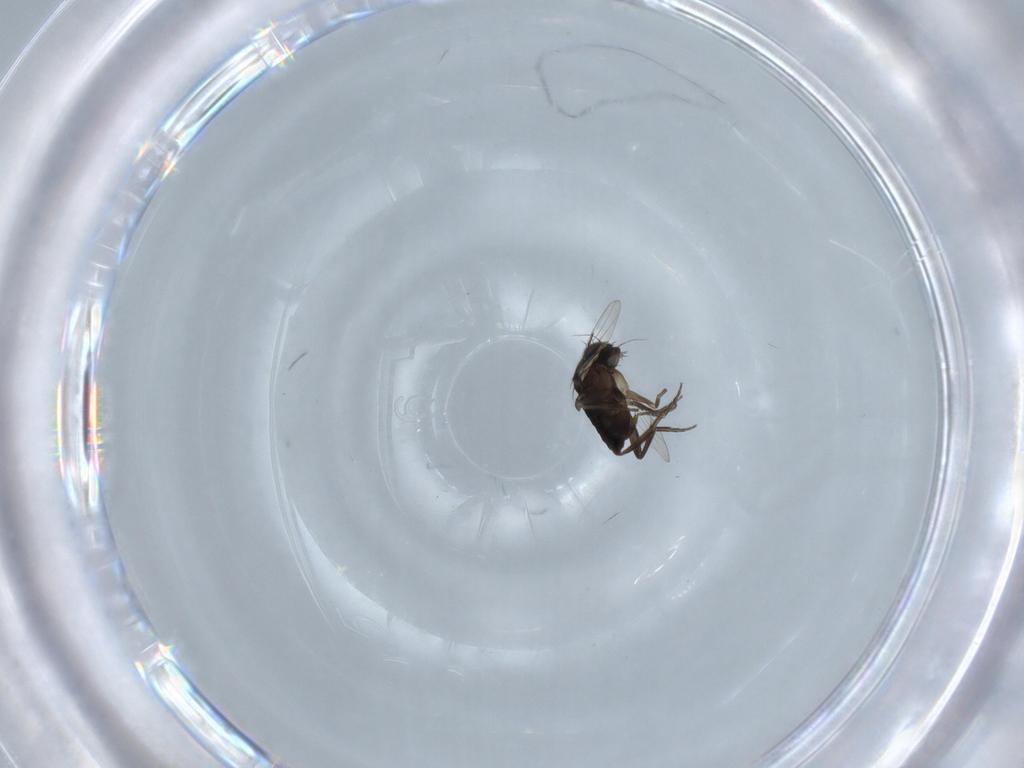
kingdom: Animalia
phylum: Arthropoda
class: Insecta
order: Diptera
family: Phoridae
